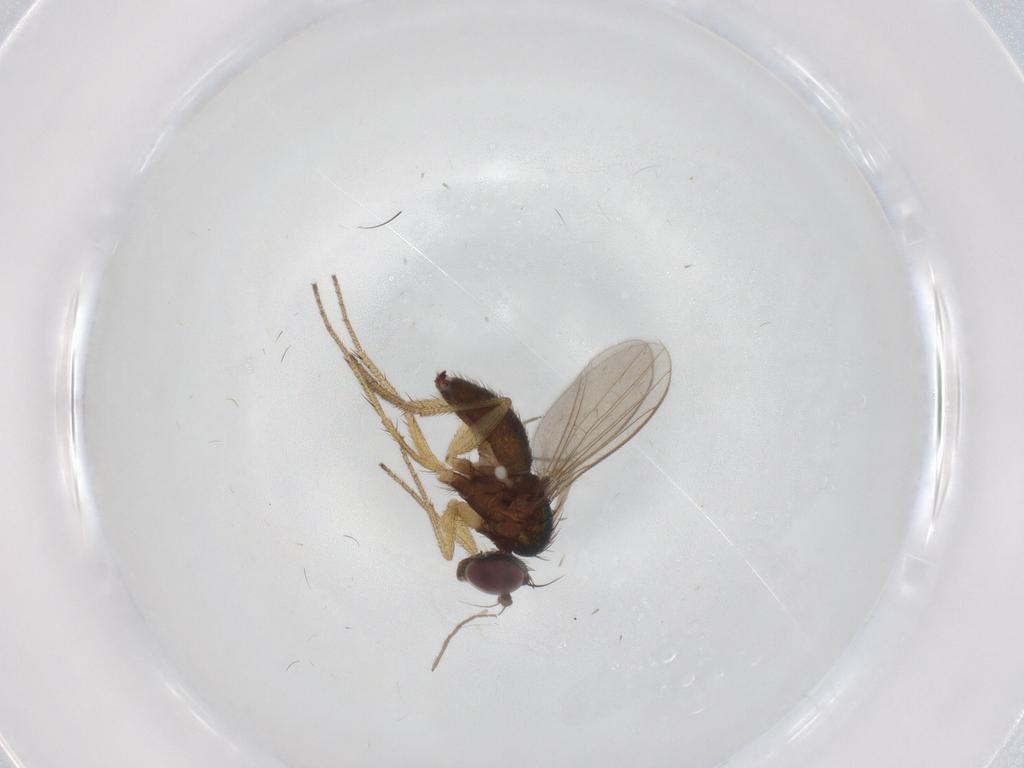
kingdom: Animalia
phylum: Arthropoda
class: Insecta
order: Diptera
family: Chironomidae
